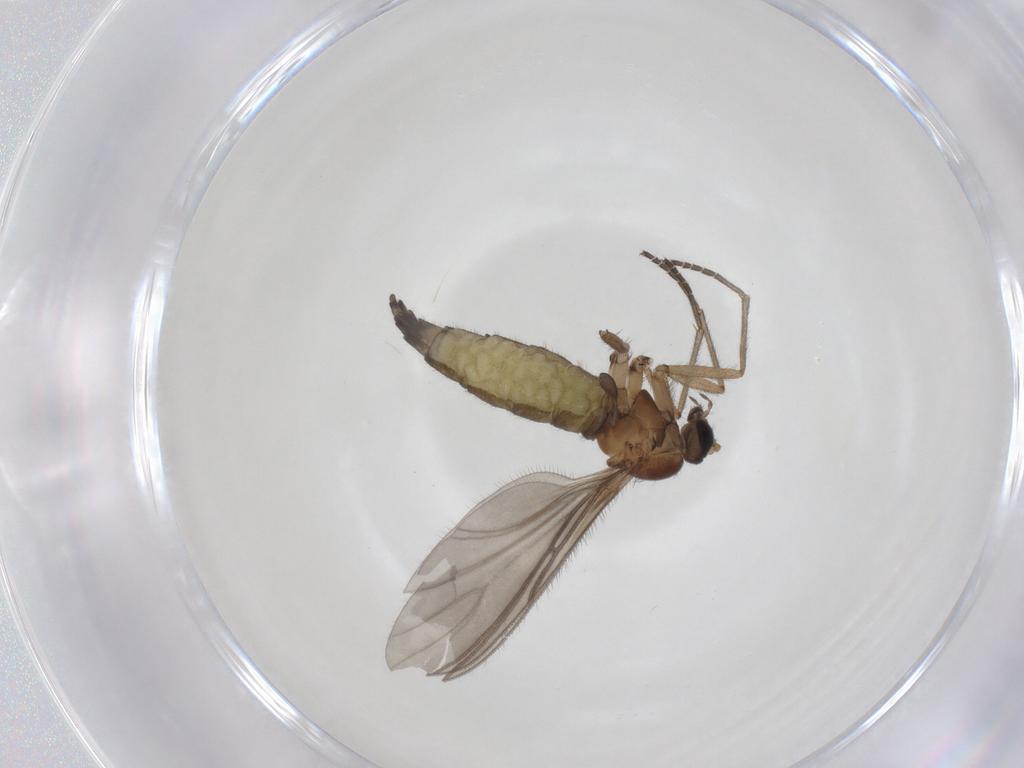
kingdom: Animalia
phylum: Arthropoda
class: Insecta
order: Diptera
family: Sciaridae
